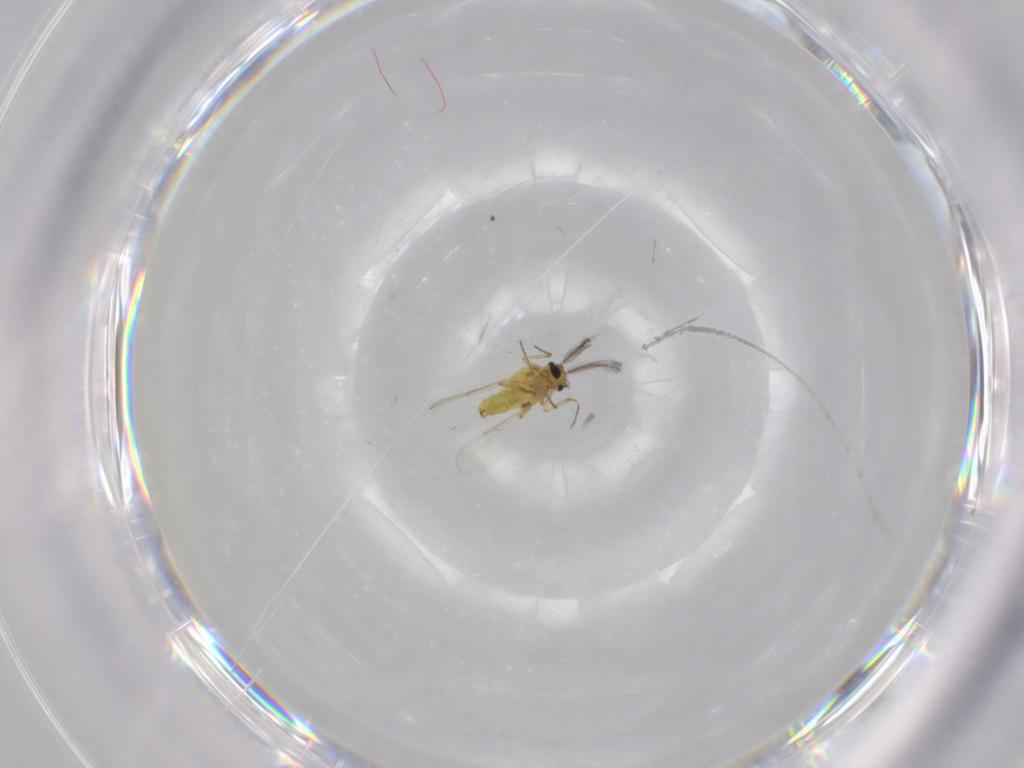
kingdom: Animalia
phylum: Arthropoda
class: Insecta
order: Diptera
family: Ceratopogonidae
